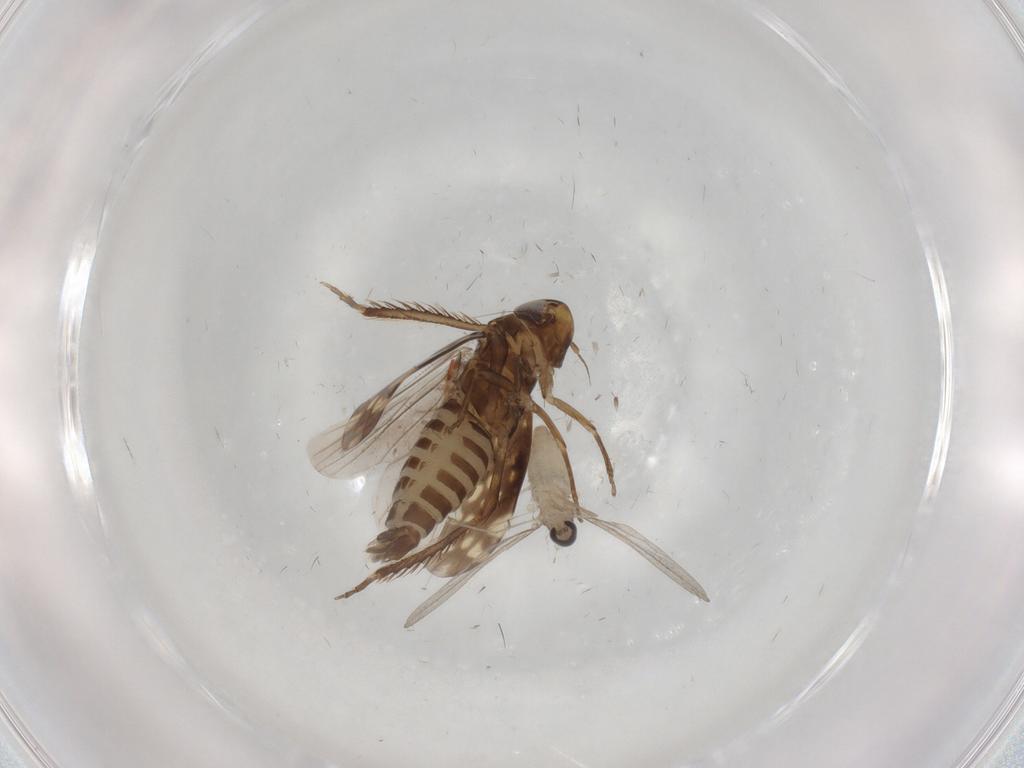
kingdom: Animalia
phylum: Arthropoda
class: Insecta
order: Hemiptera
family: Cicadellidae
